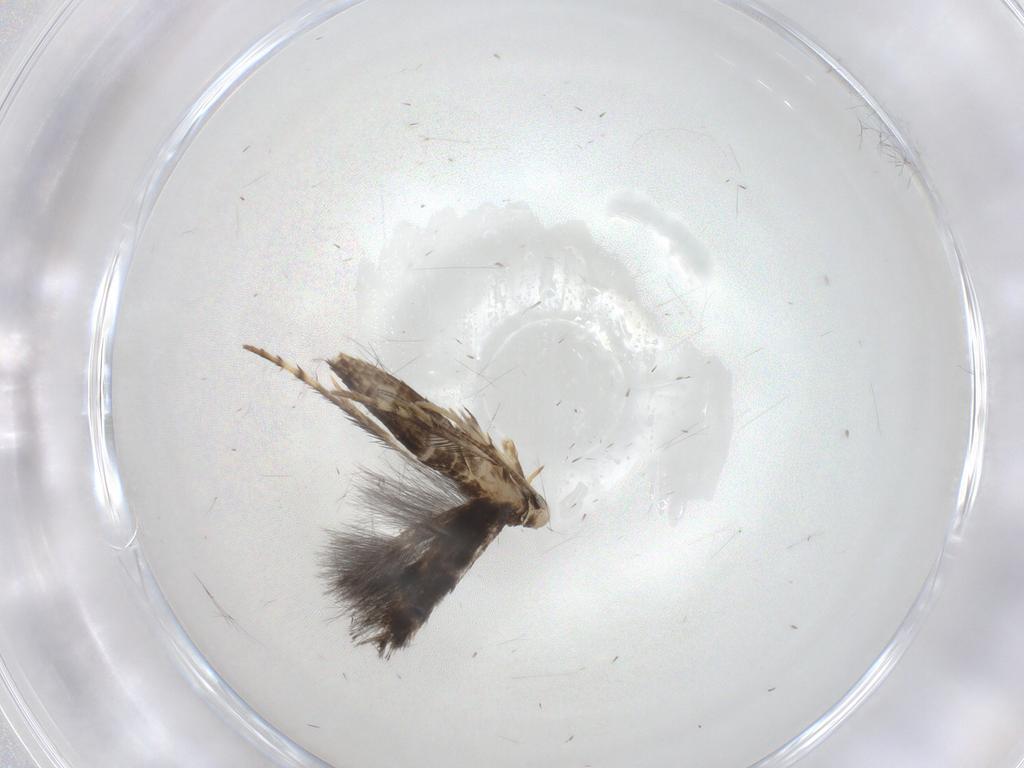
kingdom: Animalia
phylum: Arthropoda
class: Insecta
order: Lepidoptera
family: Gracillariidae
